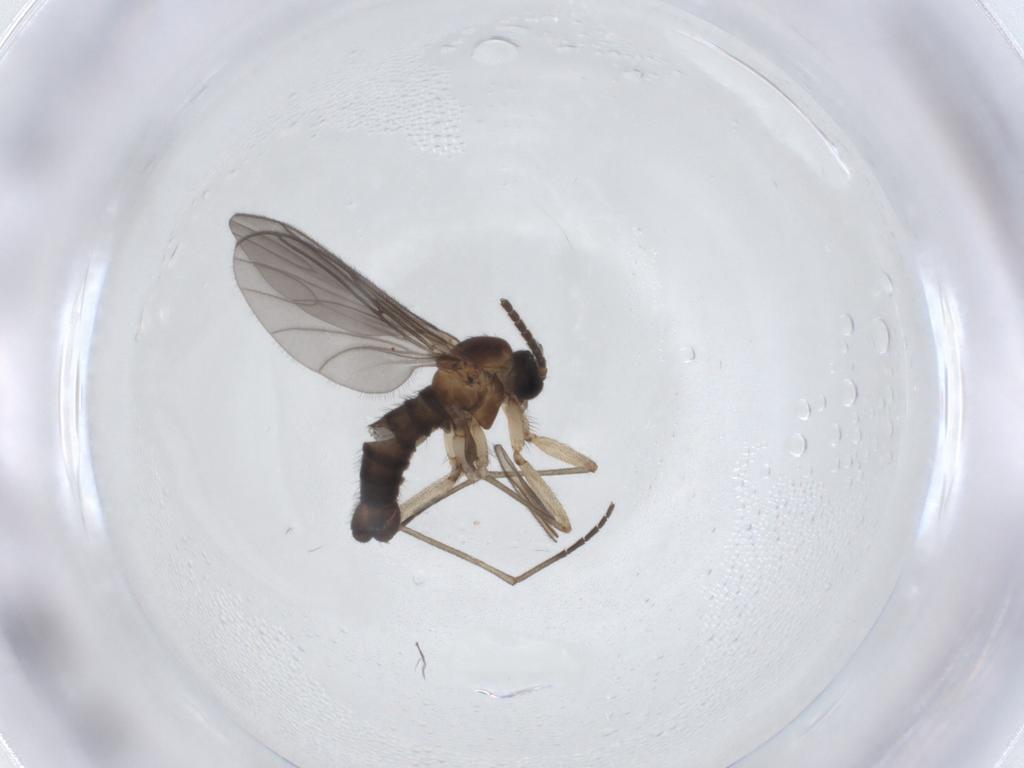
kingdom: Animalia
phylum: Arthropoda
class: Insecta
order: Diptera
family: Sciaridae
